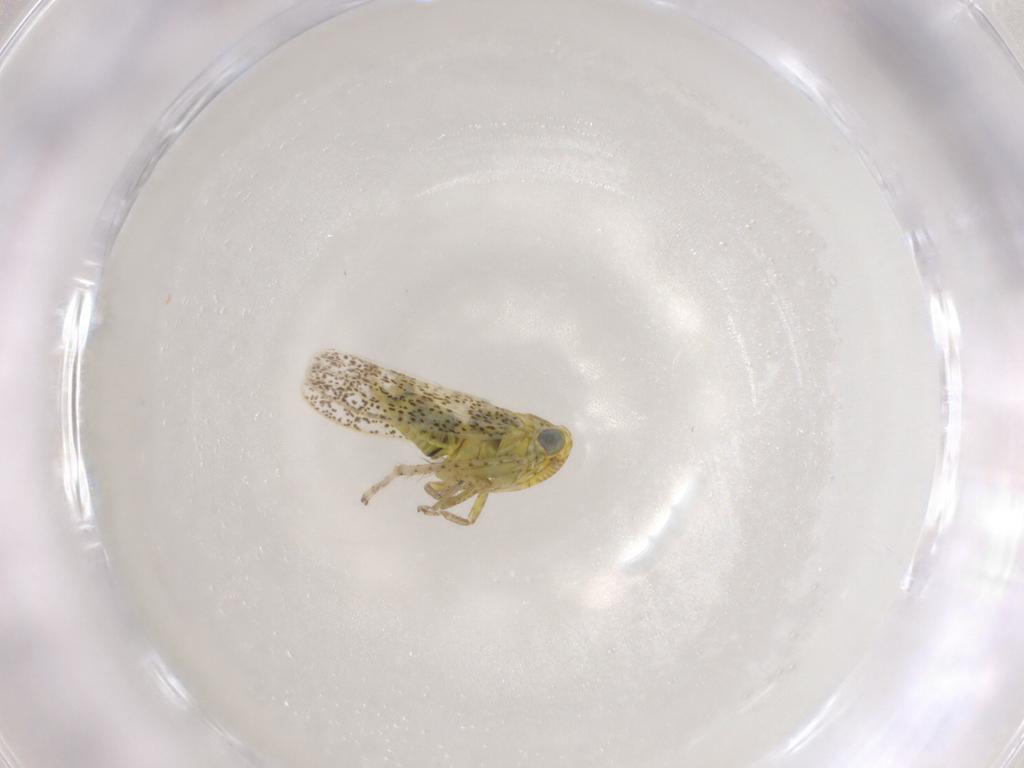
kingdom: Animalia
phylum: Arthropoda
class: Insecta
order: Hemiptera
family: Cicadellidae
